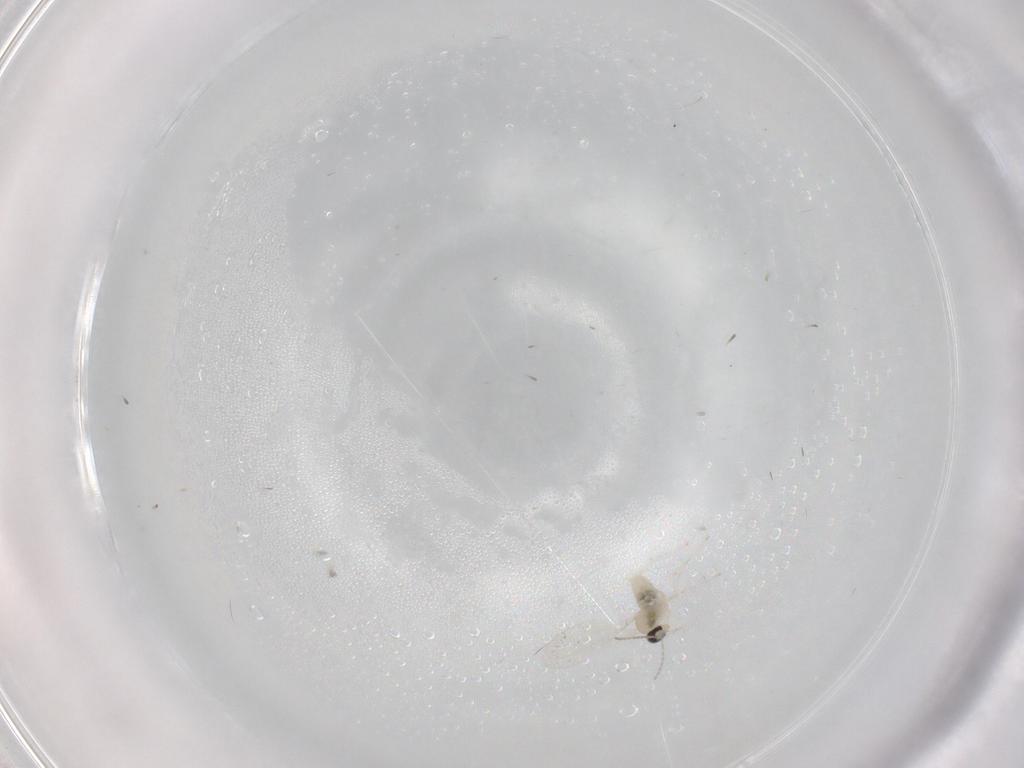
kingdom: Animalia
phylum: Arthropoda
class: Insecta
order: Diptera
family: Cecidomyiidae
